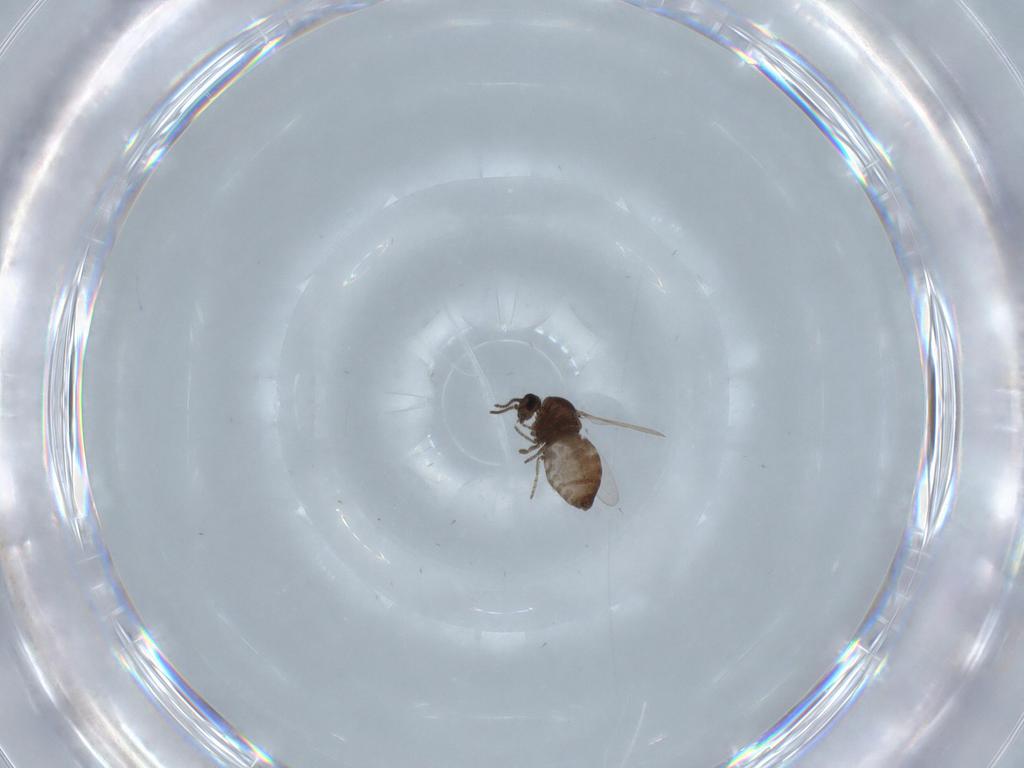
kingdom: Animalia
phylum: Arthropoda
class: Insecta
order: Diptera
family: Ceratopogonidae
